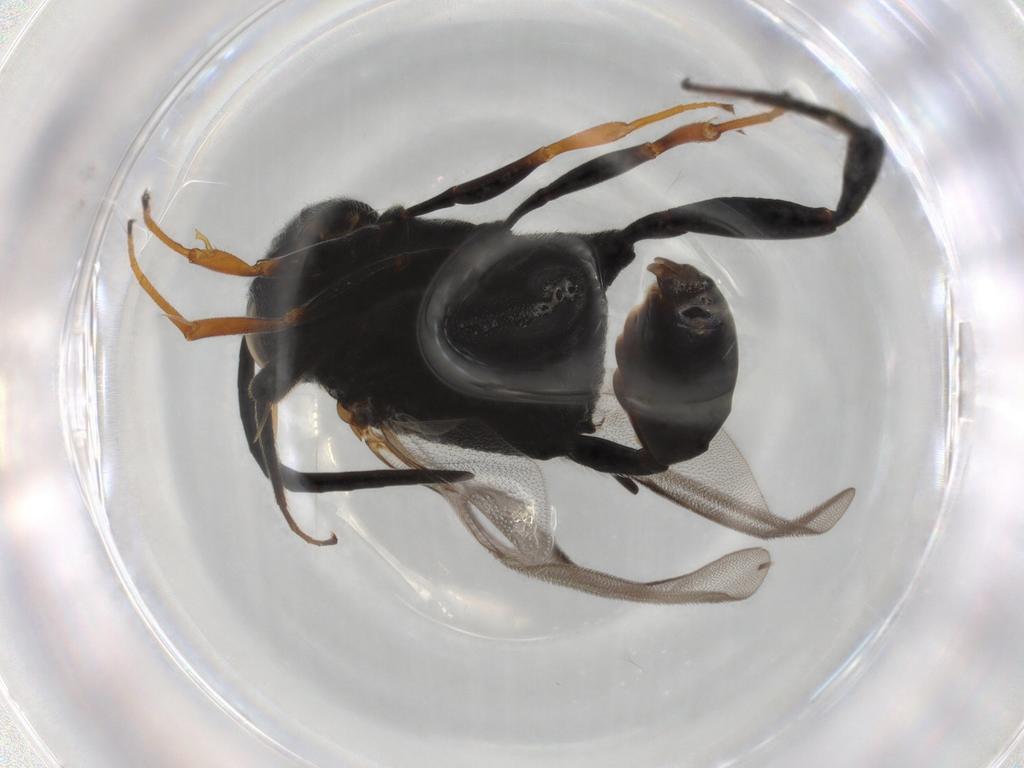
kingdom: Animalia
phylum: Arthropoda
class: Insecta
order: Hymenoptera
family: Evaniidae
